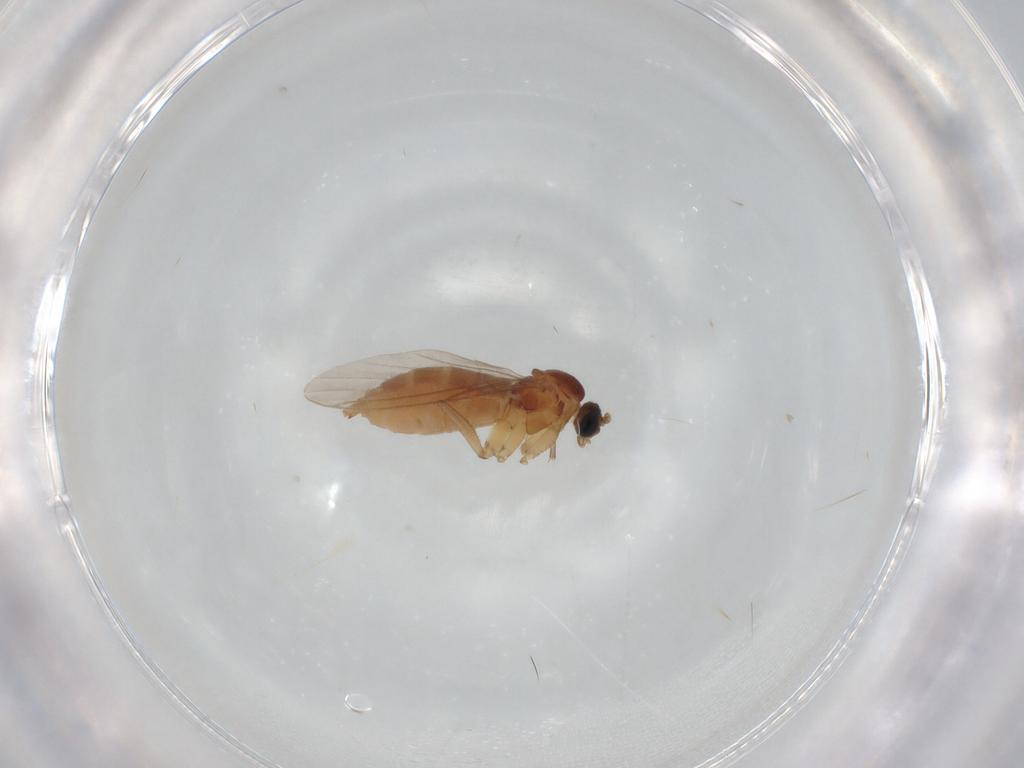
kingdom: Animalia
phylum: Arthropoda
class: Insecta
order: Diptera
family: Sciaridae
